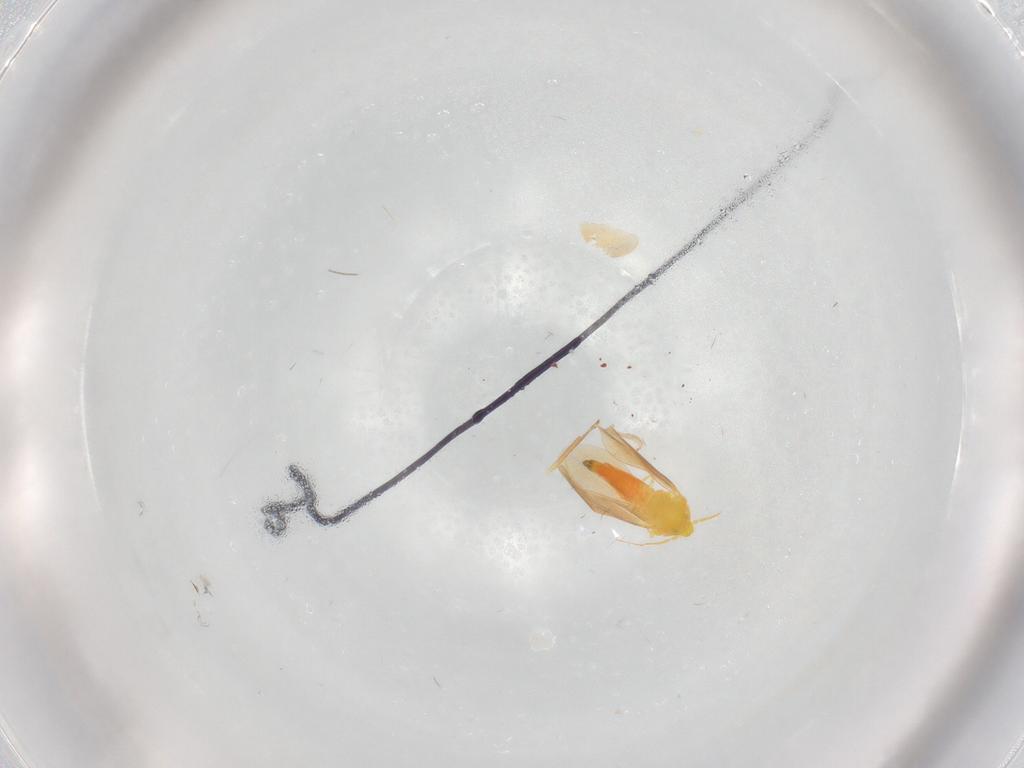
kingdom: Animalia
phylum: Arthropoda
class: Insecta
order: Hemiptera
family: Aleyrodidae
